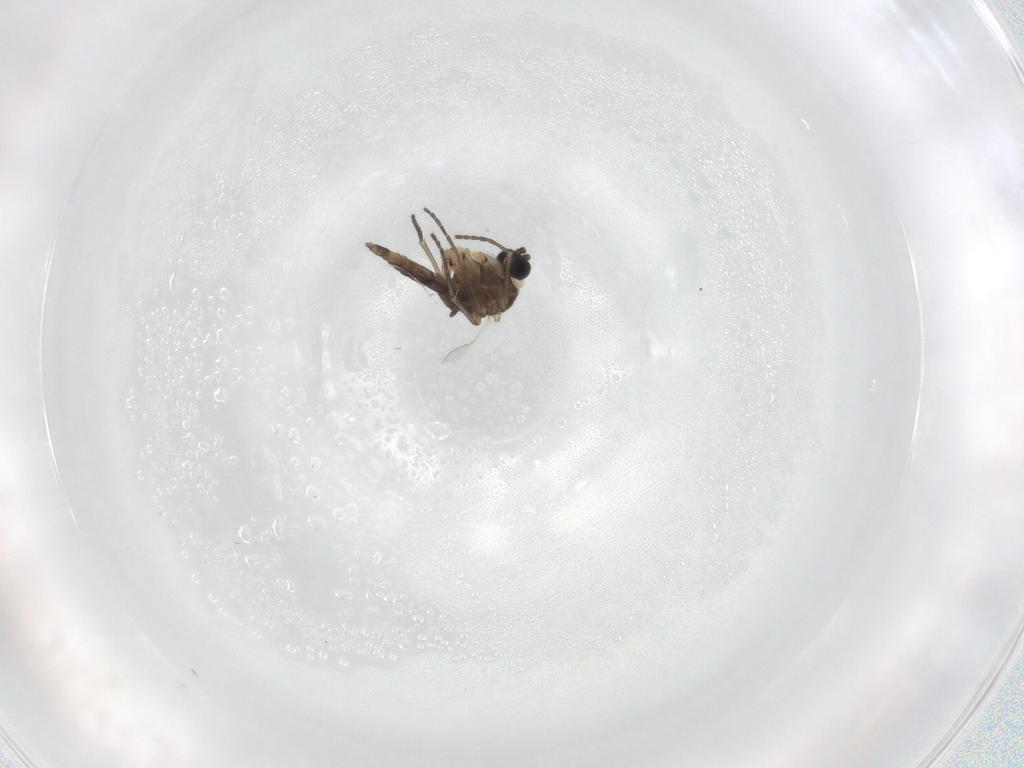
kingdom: Animalia
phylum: Arthropoda
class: Insecta
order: Diptera
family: Sciaridae
